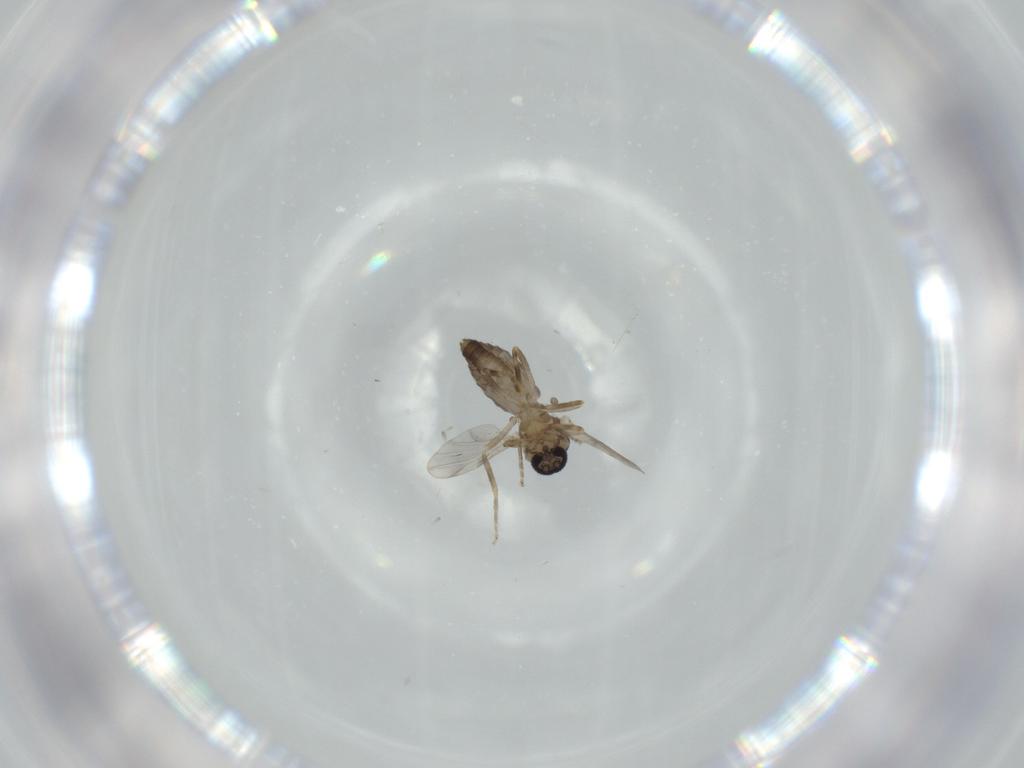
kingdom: Animalia
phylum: Arthropoda
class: Insecta
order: Diptera
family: Ceratopogonidae
